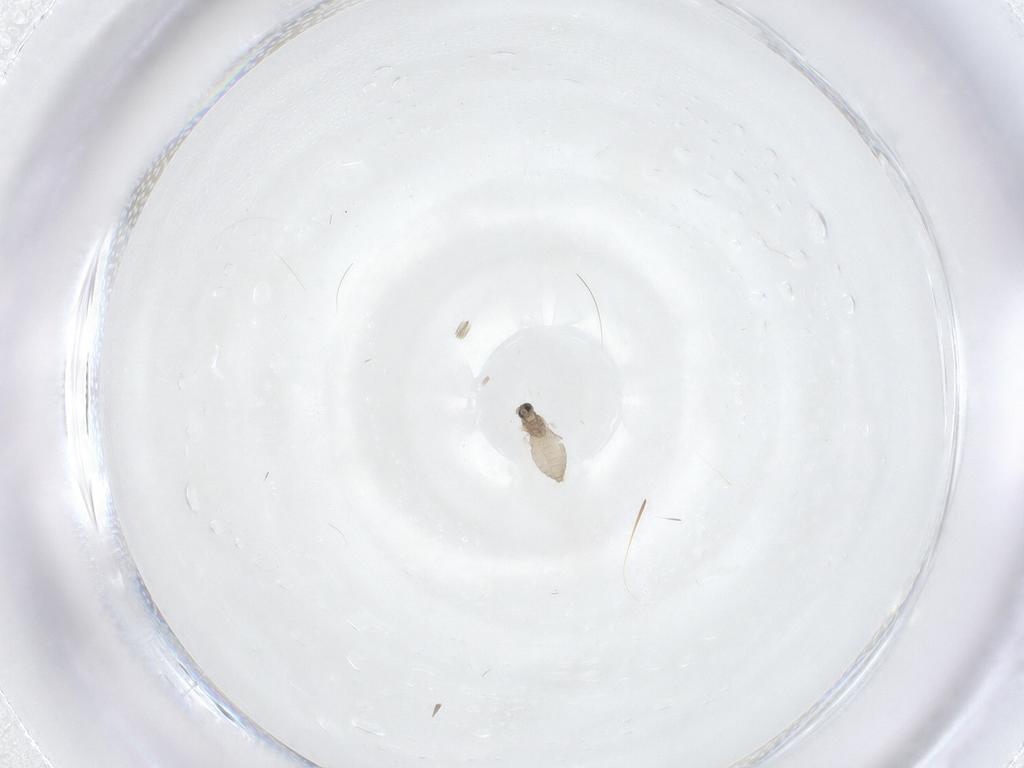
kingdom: Animalia
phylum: Arthropoda
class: Insecta
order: Diptera
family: Cecidomyiidae
